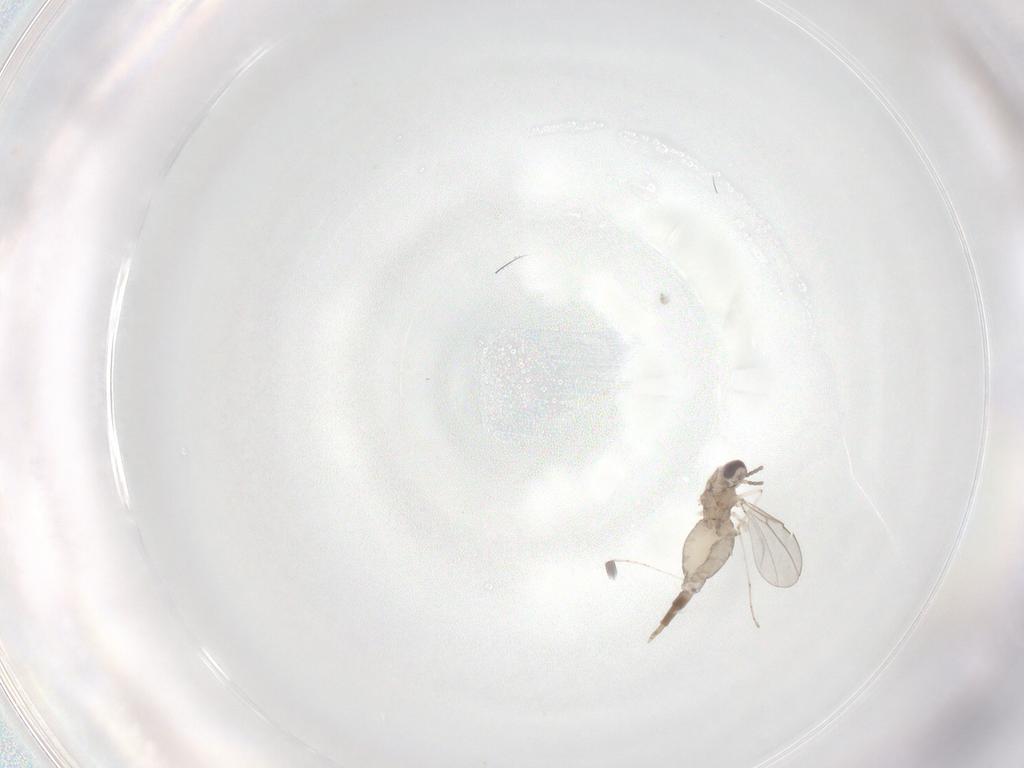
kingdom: Animalia
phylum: Arthropoda
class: Insecta
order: Diptera
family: Cecidomyiidae
